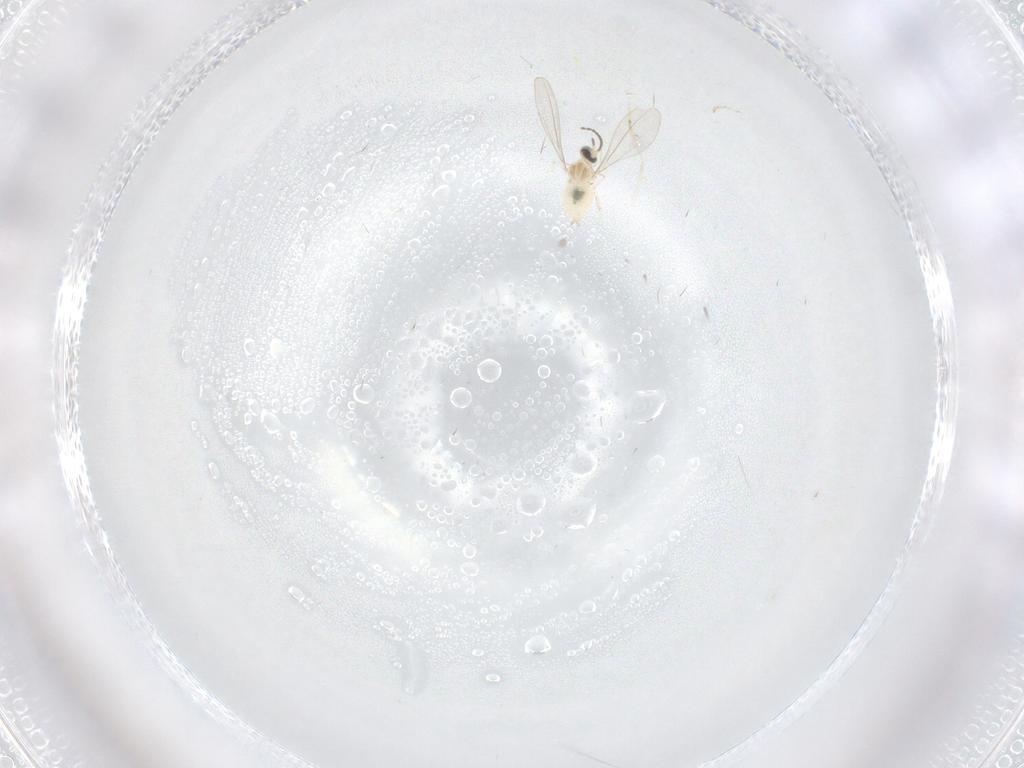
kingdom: Animalia
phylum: Arthropoda
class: Insecta
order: Diptera
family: Cecidomyiidae
